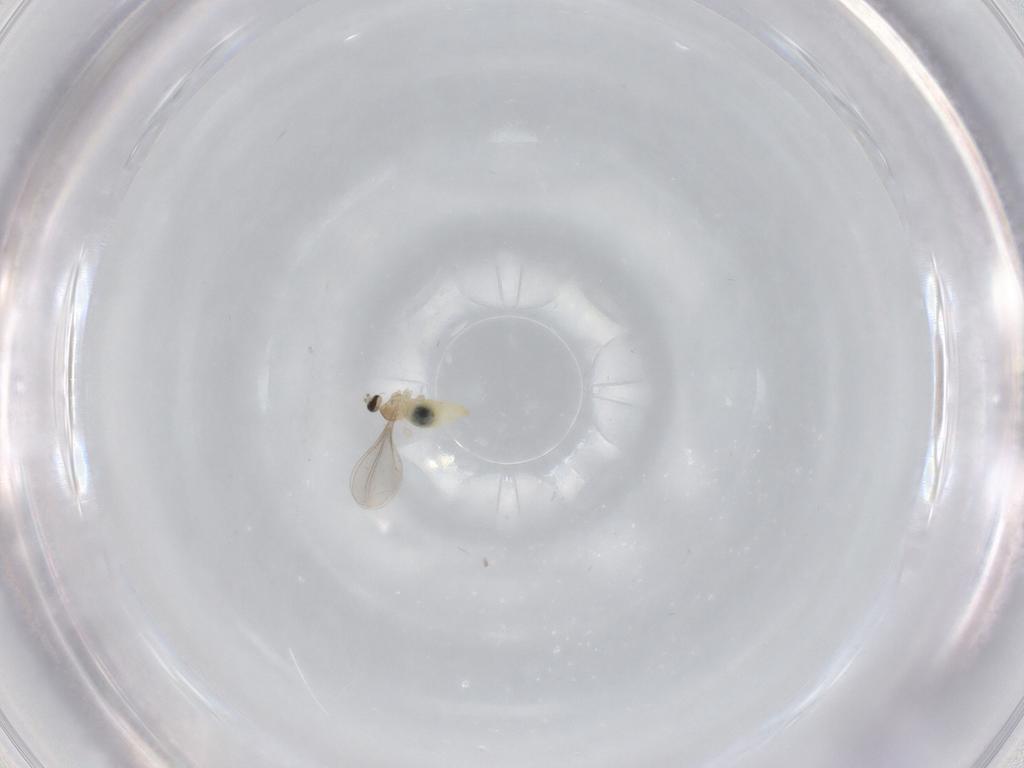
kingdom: Animalia
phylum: Arthropoda
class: Insecta
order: Diptera
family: Cecidomyiidae
